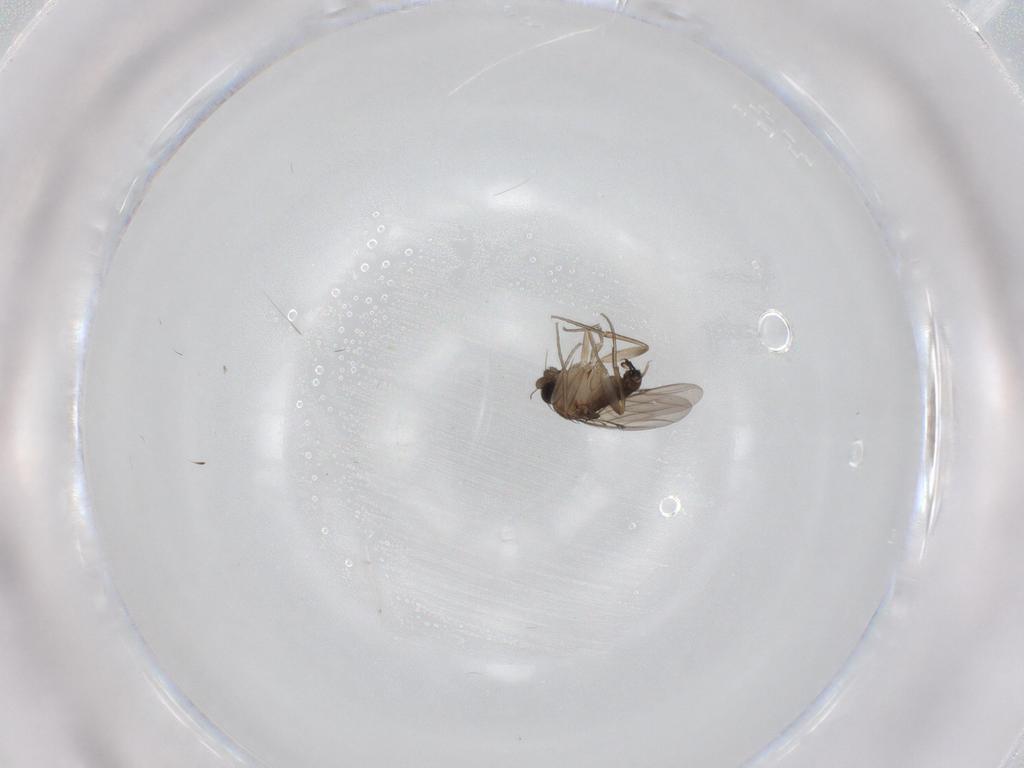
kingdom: Animalia
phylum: Arthropoda
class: Insecta
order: Diptera
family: Phoridae
